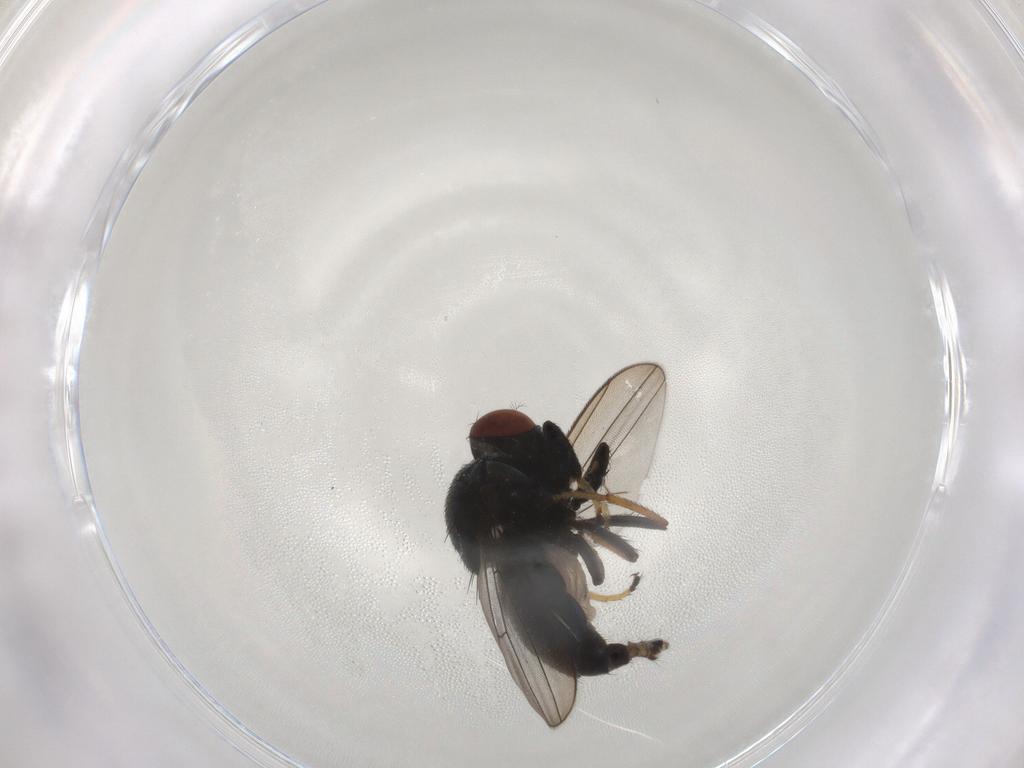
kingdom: Animalia
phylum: Arthropoda
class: Insecta
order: Diptera
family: Ephydridae
